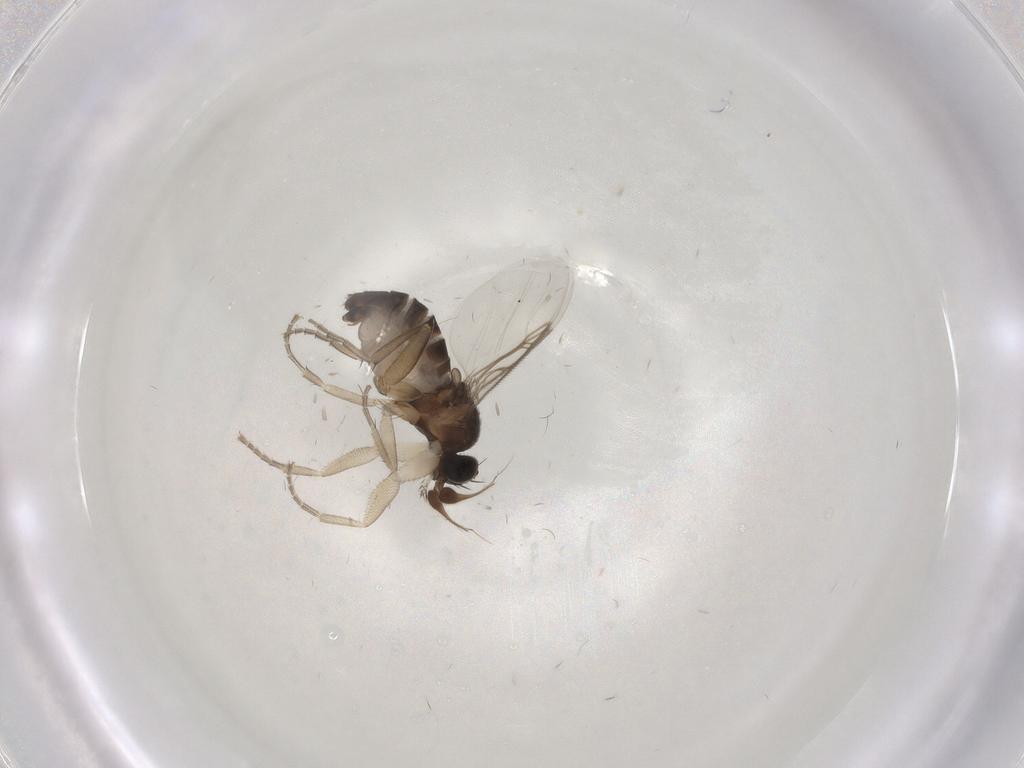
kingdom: Animalia
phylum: Arthropoda
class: Insecta
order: Diptera
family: Phoridae
